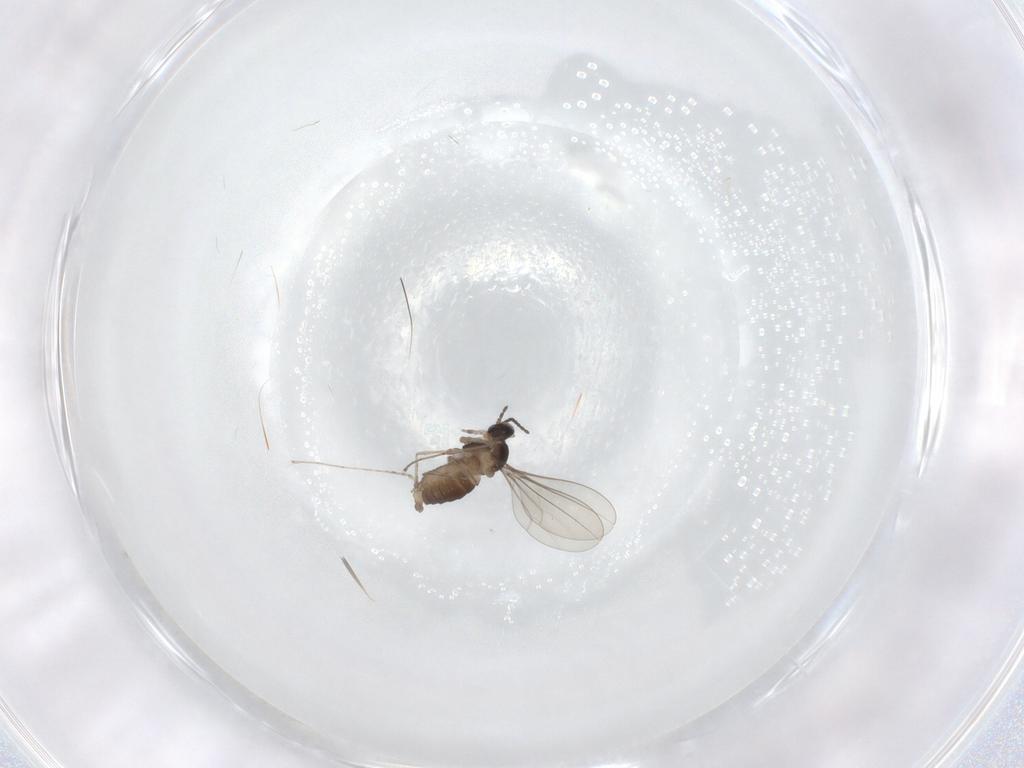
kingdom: Animalia
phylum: Arthropoda
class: Insecta
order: Diptera
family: Cecidomyiidae
